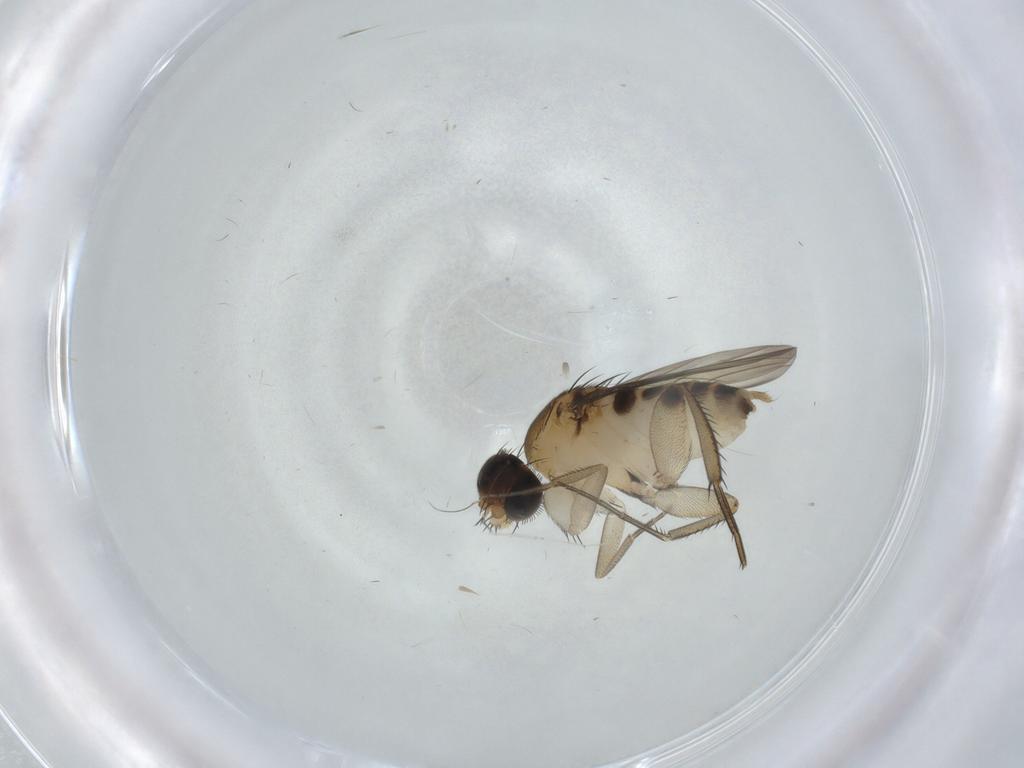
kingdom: Animalia
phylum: Arthropoda
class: Insecta
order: Diptera
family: Phoridae
